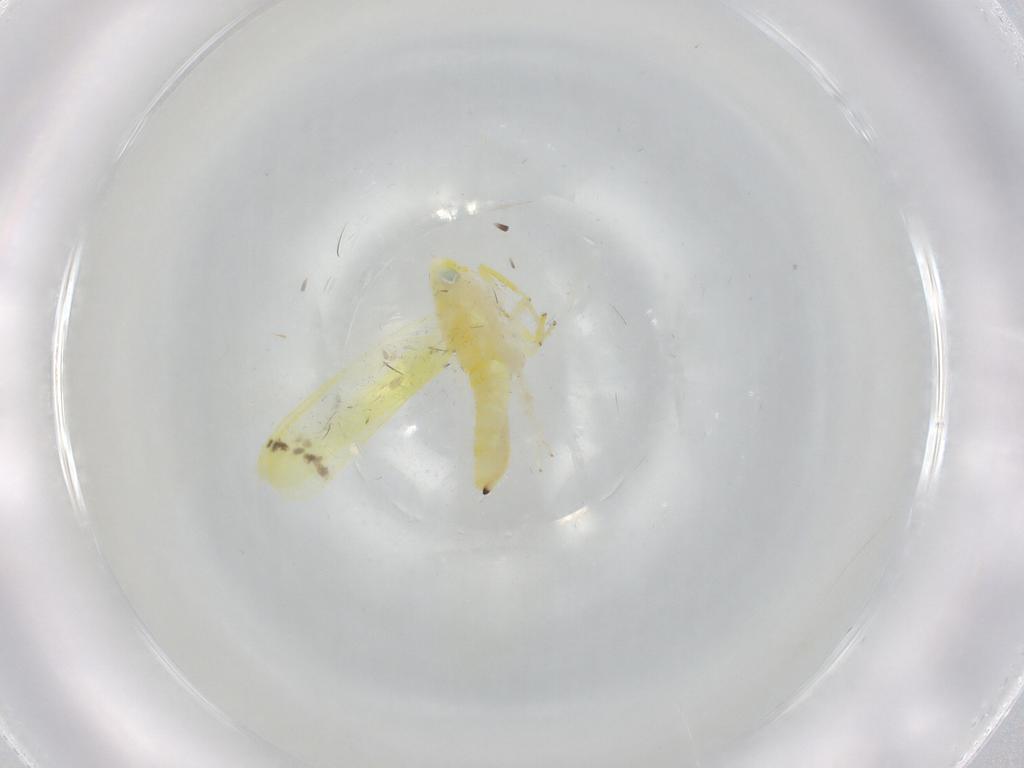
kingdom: Animalia
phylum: Arthropoda
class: Insecta
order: Hemiptera
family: Cicadellidae
